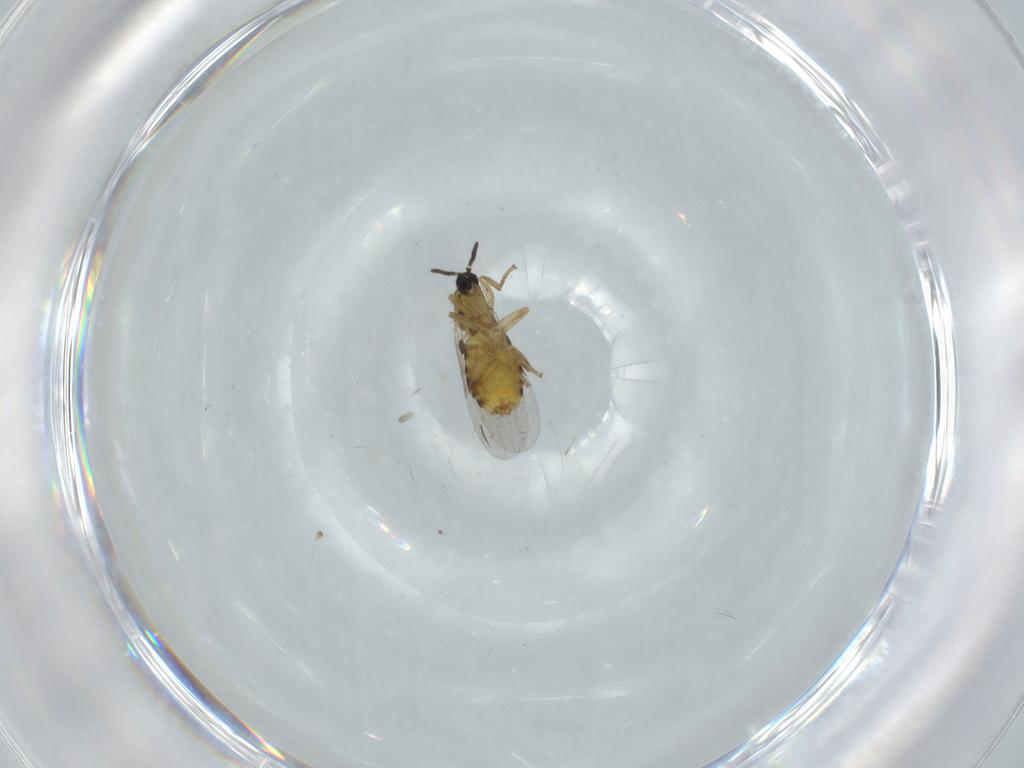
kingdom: Animalia
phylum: Arthropoda
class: Insecta
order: Diptera
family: Scatopsidae
